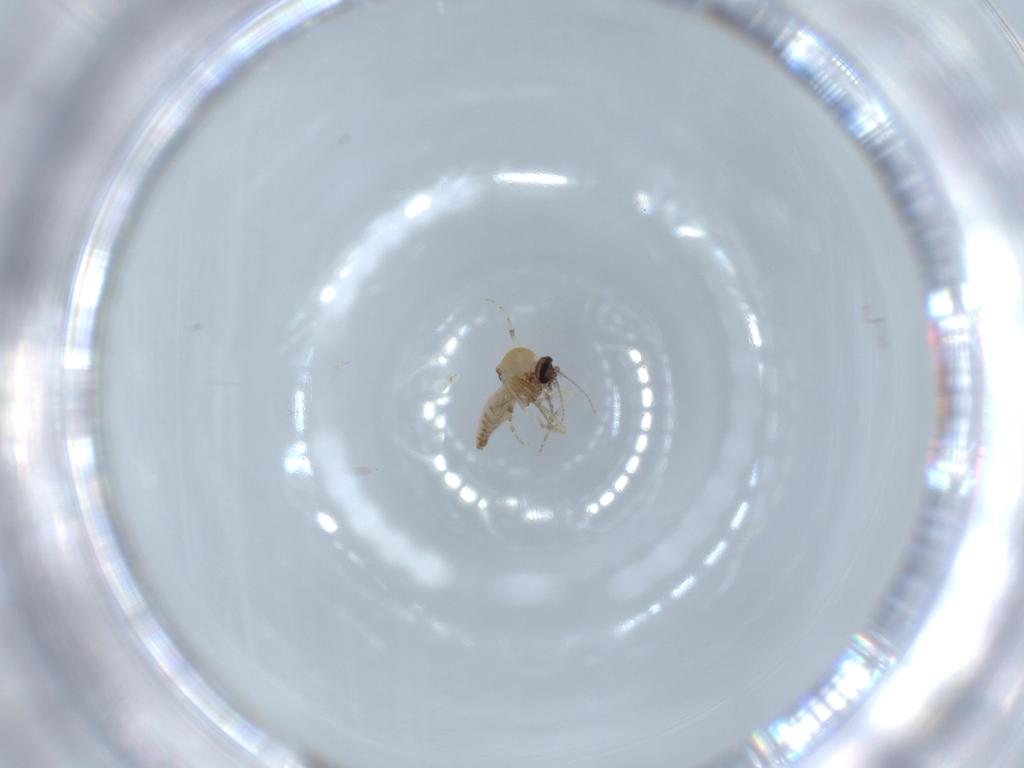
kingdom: Animalia
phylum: Arthropoda
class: Insecta
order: Diptera
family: Ceratopogonidae
